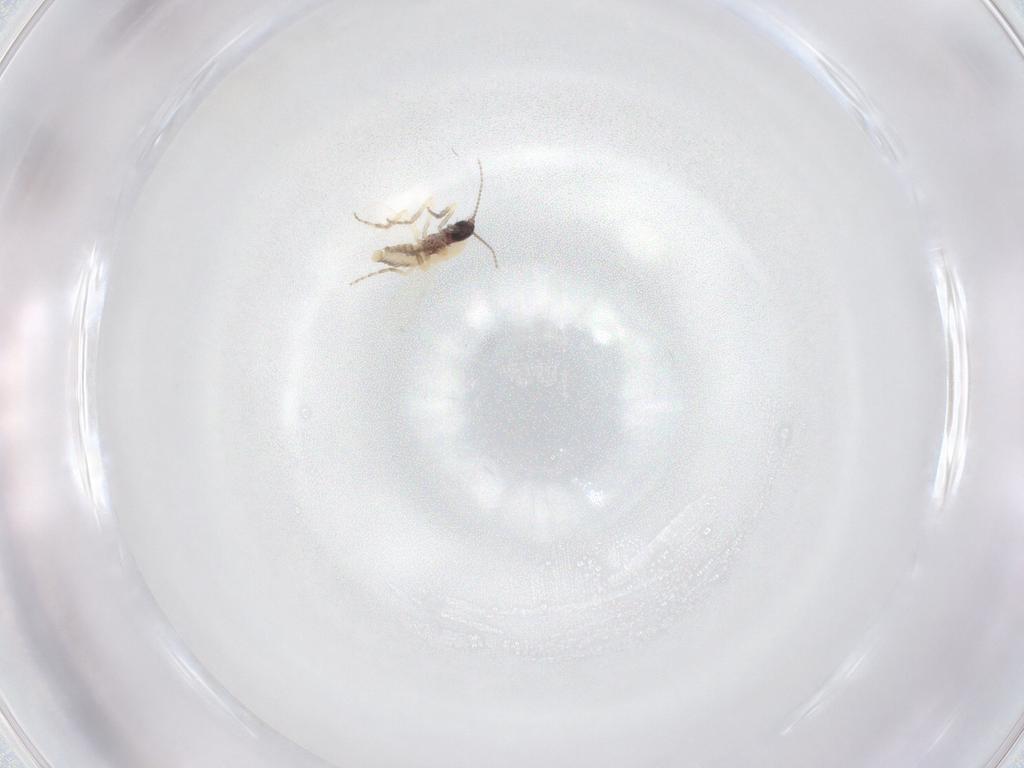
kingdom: Animalia
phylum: Arthropoda
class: Insecta
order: Diptera
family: Ceratopogonidae
